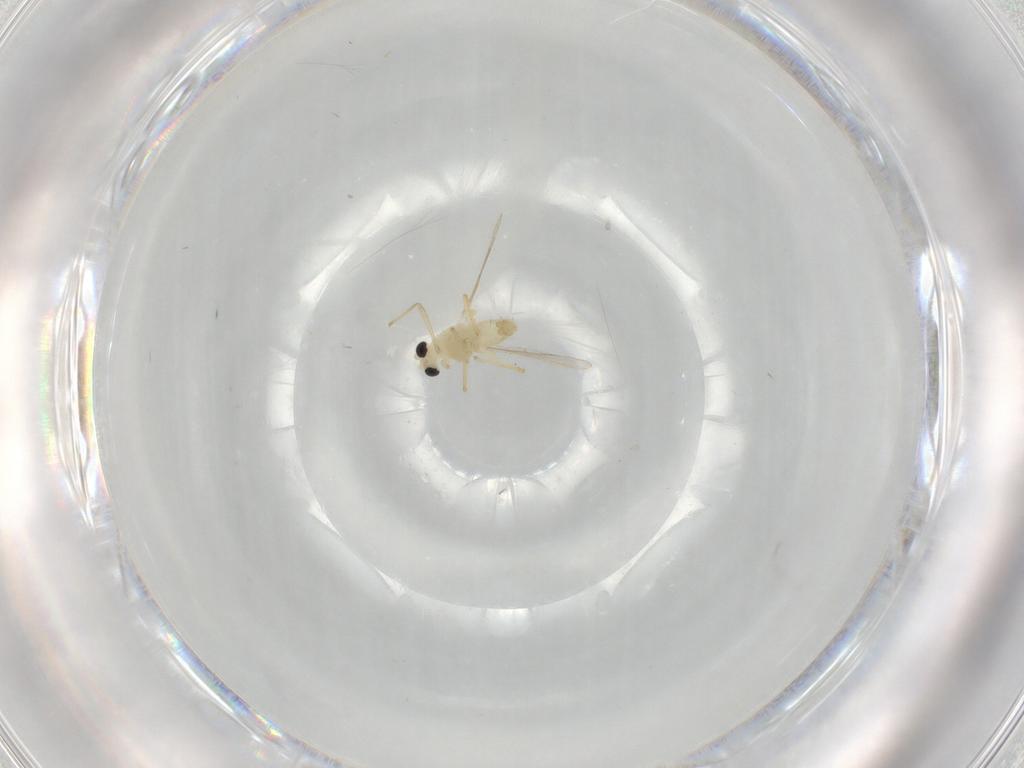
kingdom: Animalia
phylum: Arthropoda
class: Insecta
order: Diptera
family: Chironomidae
